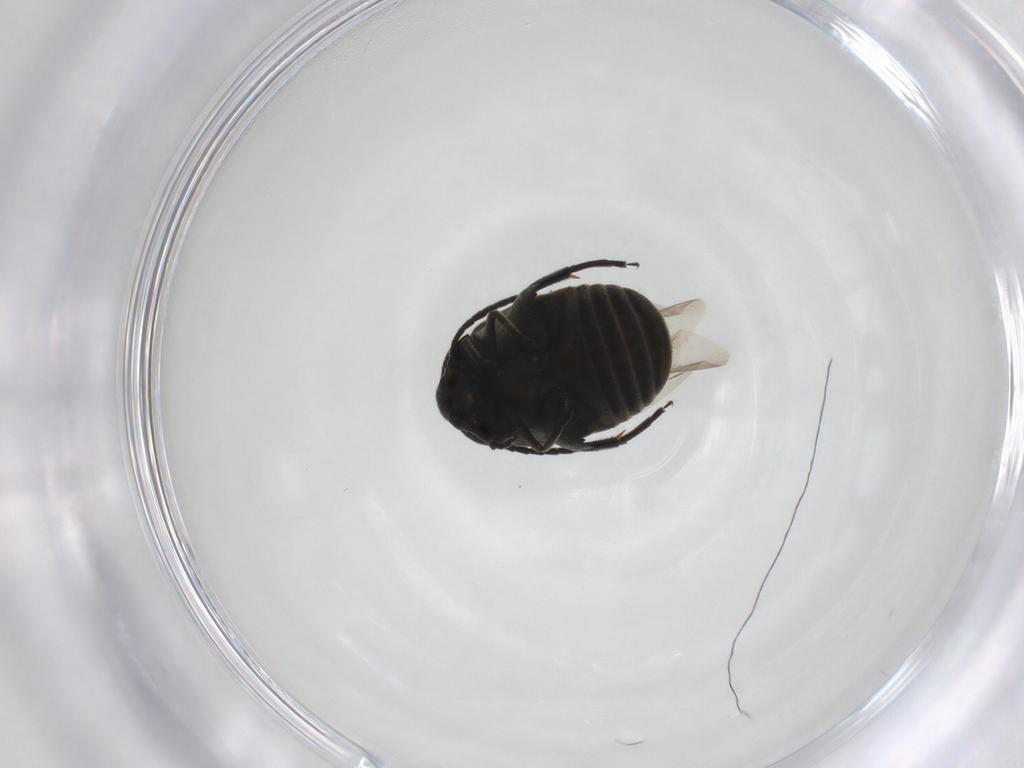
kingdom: Animalia
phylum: Arthropoda
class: Insecta
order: Coleoptera
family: Chrysomelidae
